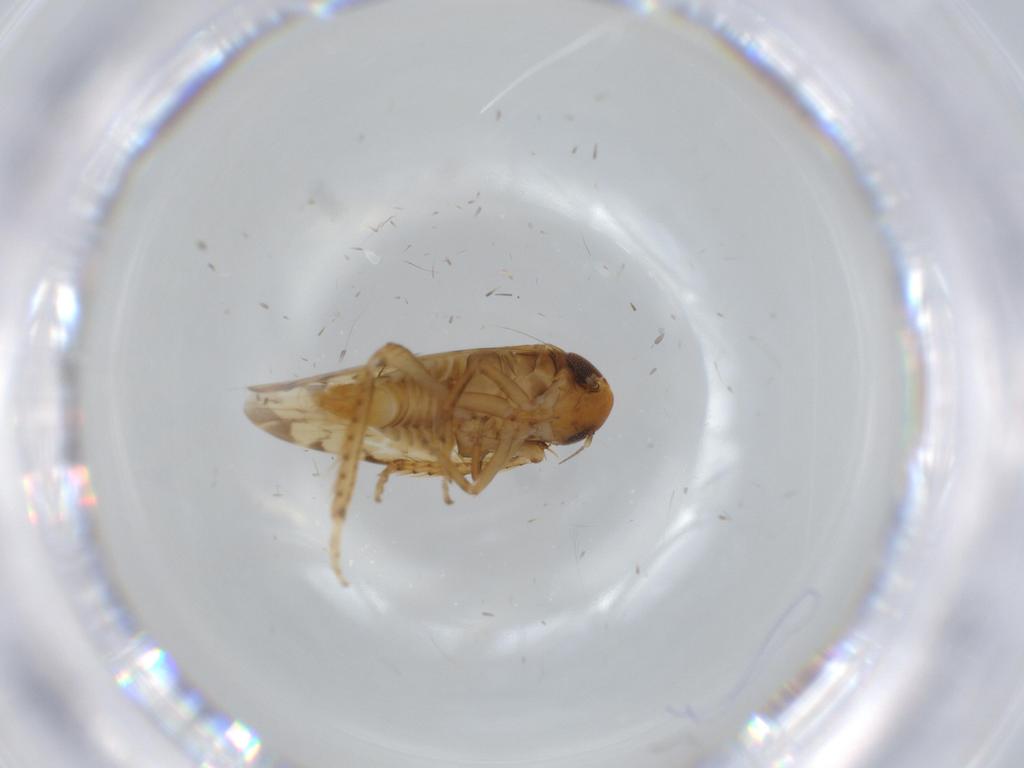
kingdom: Animalia
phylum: Arthropoda
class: Insecta
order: Hemiptera
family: Cicadellidae
